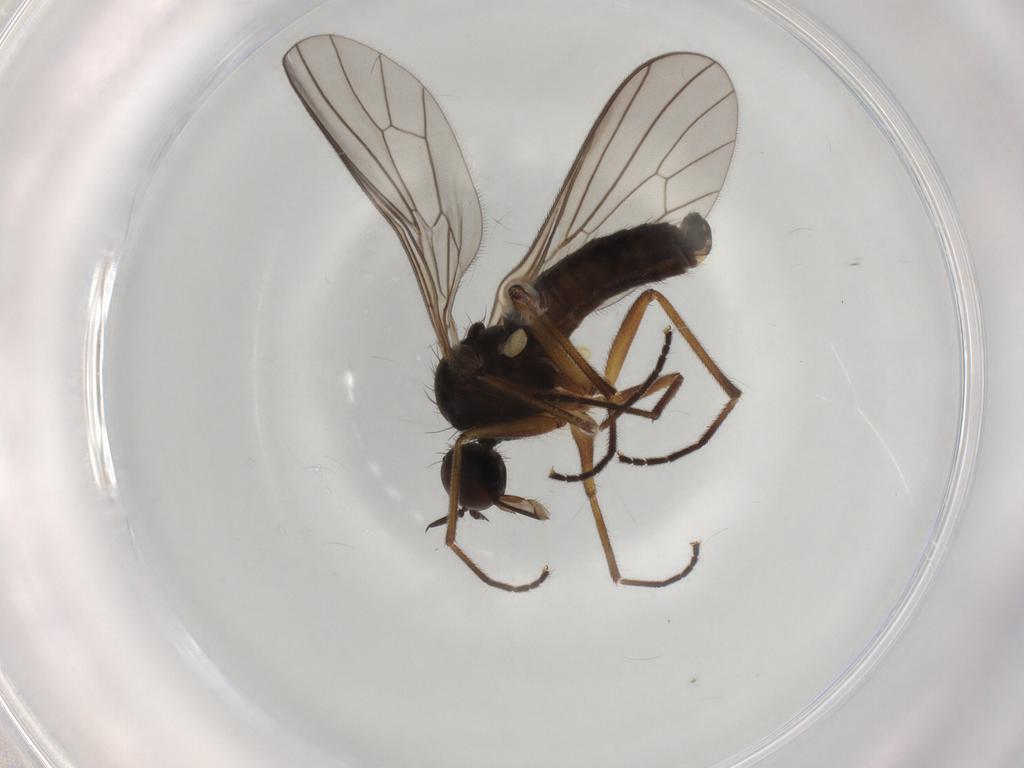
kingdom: Animalia
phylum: Arthropoda
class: Insecta
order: Diptera
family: Empididae
